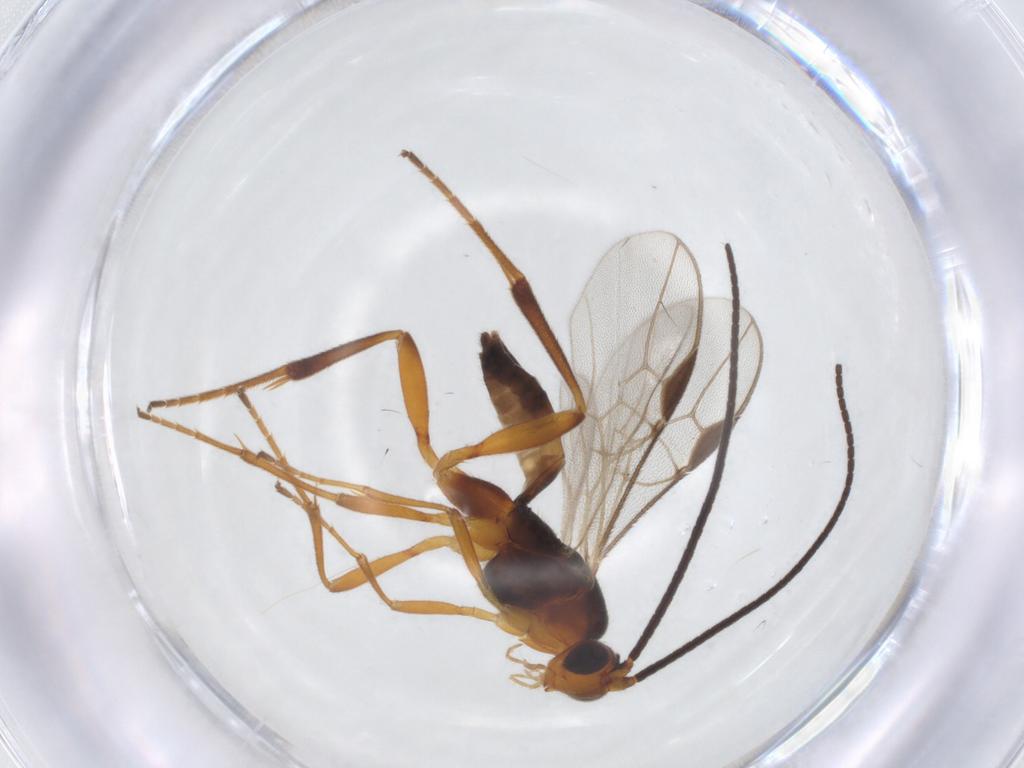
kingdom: Animalia
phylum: Arthropoda
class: Insecta
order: Hymenoptera
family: Braconidae
